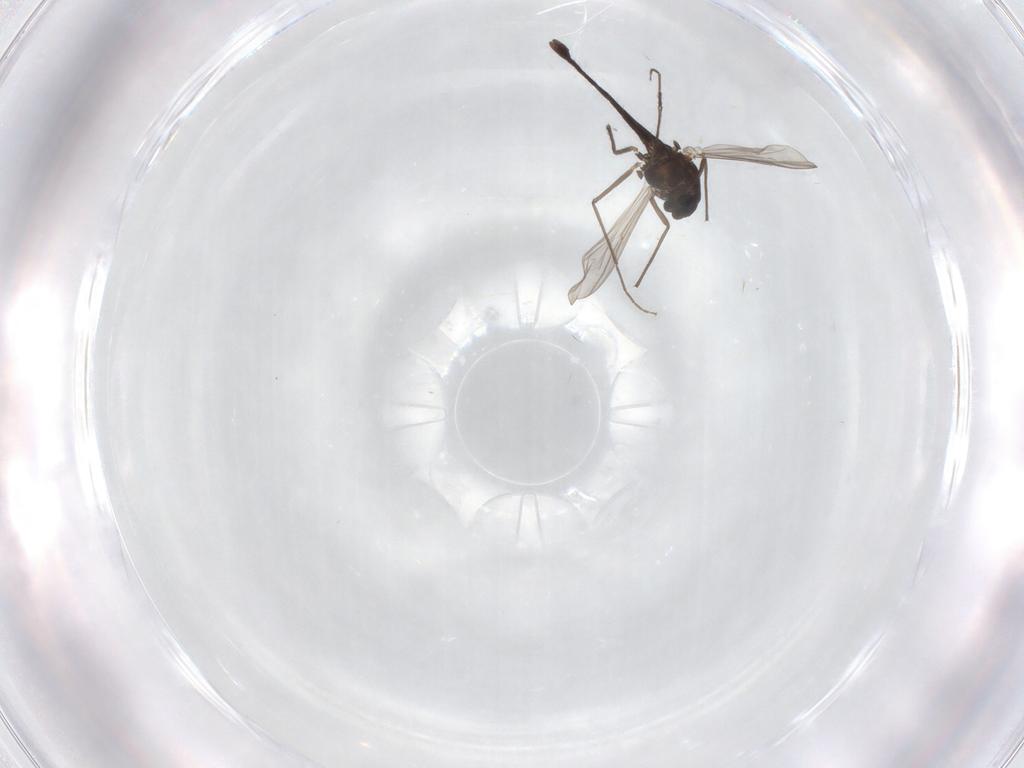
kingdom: Animalia
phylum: Arthropoda
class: Insecta
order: Diptera
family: Chironomidae
